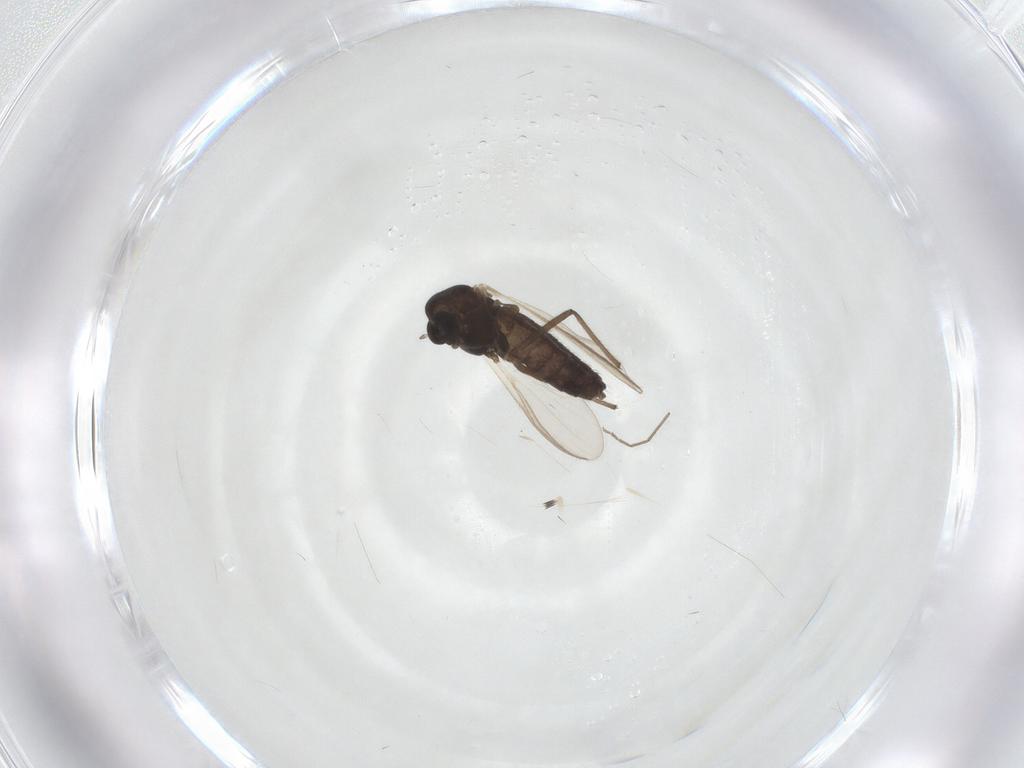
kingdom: Animalia
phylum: Arthropoda
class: Insecta
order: Diptera
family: Chironomidae
